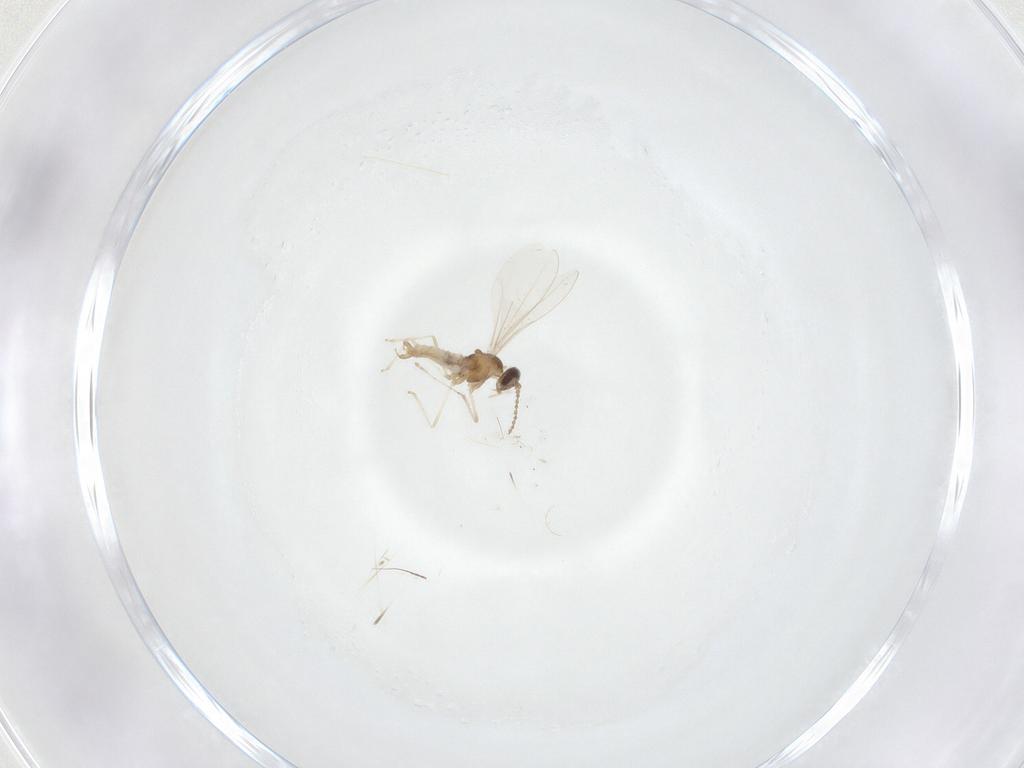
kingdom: Animalia
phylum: Arthropoda
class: Insecta
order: Diptera
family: Cecidomyiidae
